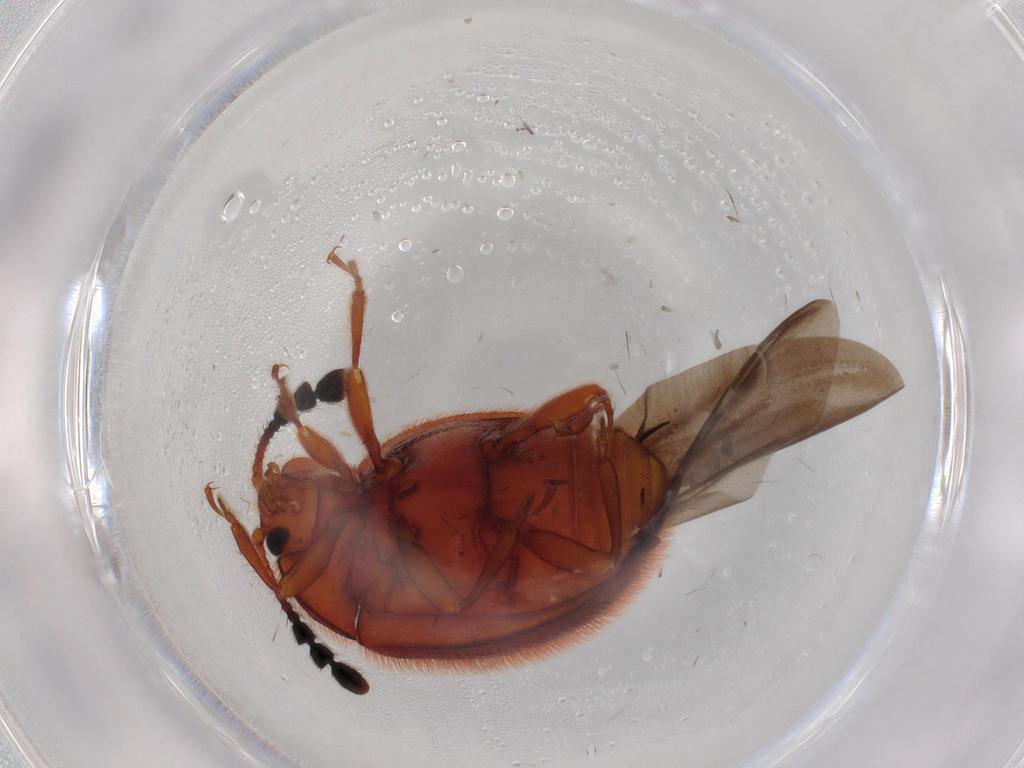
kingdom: Animalia
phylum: Arthropoda
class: Insecta
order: Coleoptera
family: Endomychidae
